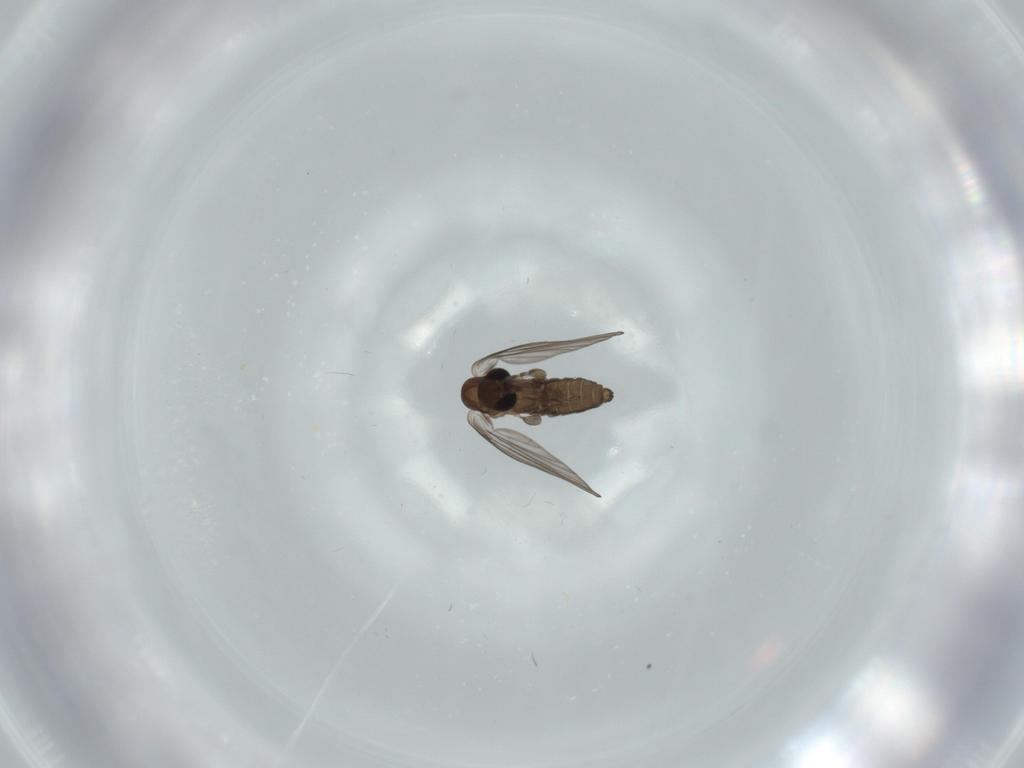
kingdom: Animalia
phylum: Arthropoda
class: Insecta
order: Diptera
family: Psychodidae
